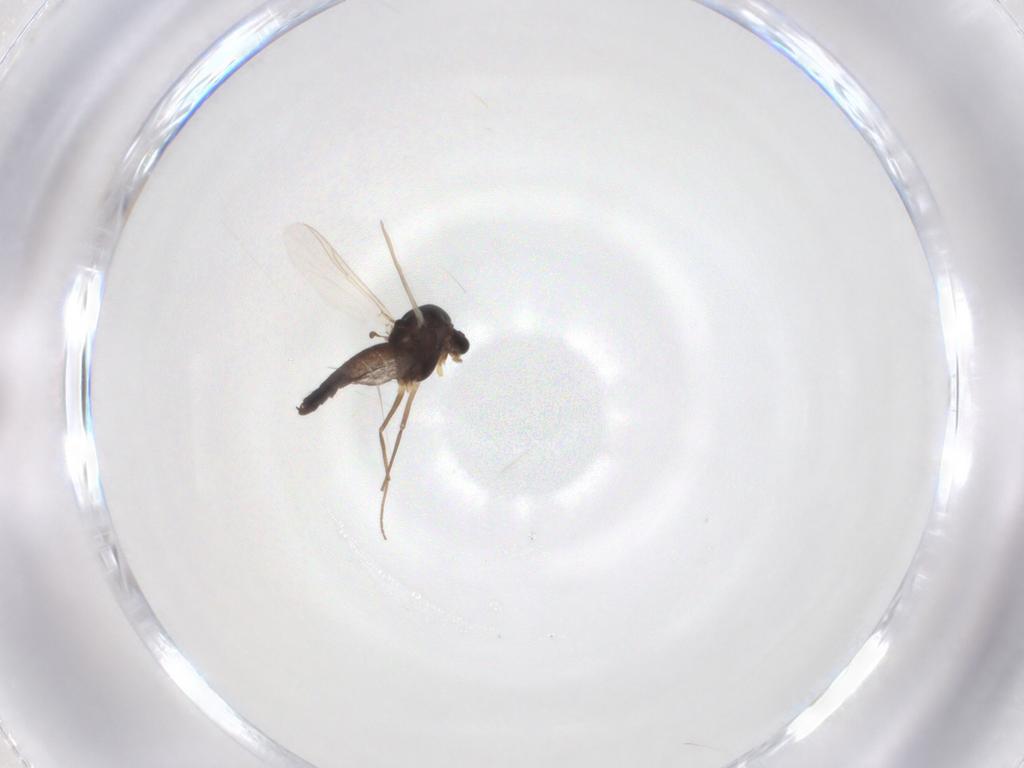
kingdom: Animalia
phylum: Arthropoda
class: Insecta
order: Diptera
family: Chironomidae
